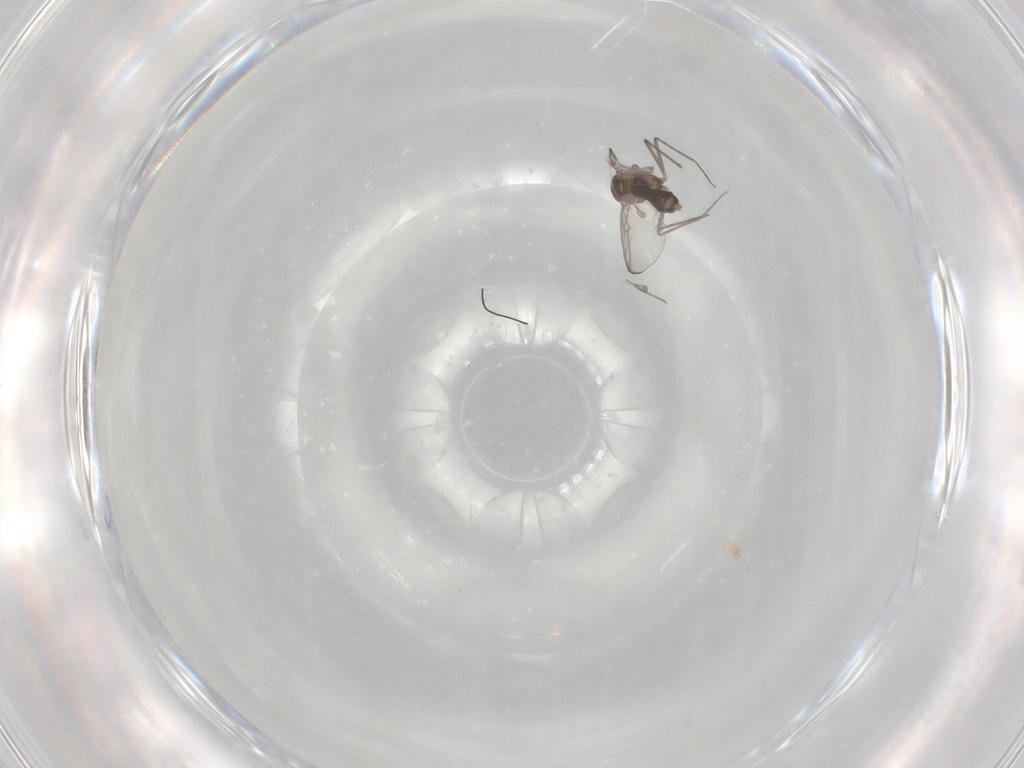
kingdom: Animalia
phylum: Arthropoda
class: Insecta
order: Diptera
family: Chironomidae
